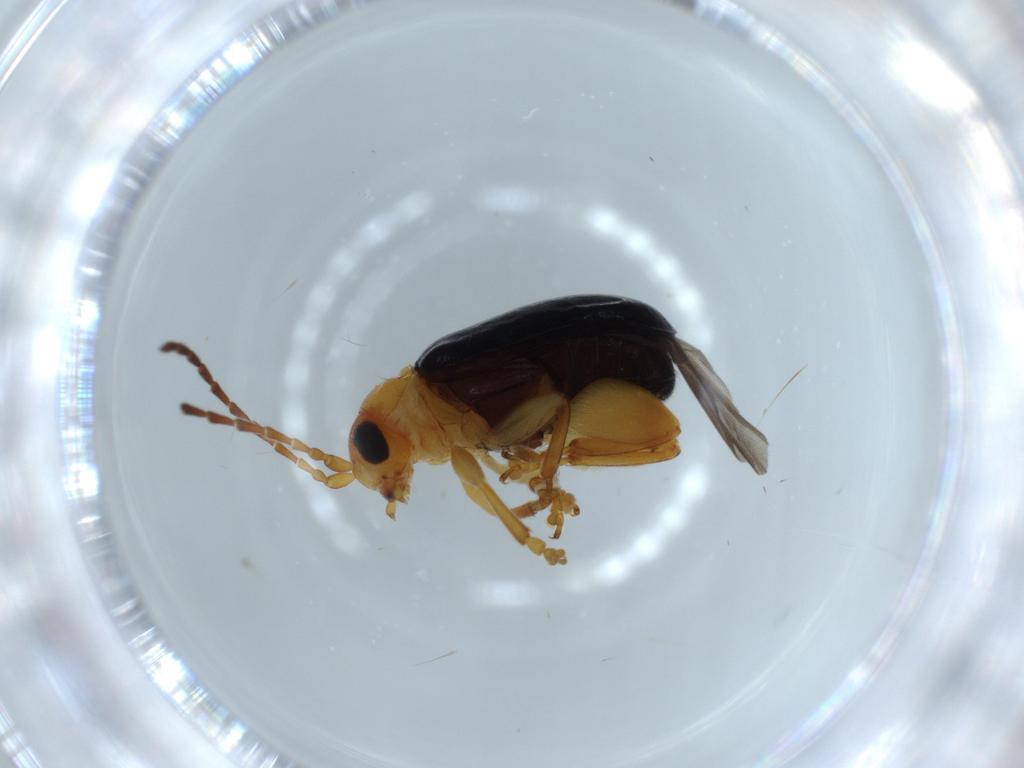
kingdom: Animalia
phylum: Arthropoda
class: Insecta
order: Coleoptera
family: Chrysomelidae
